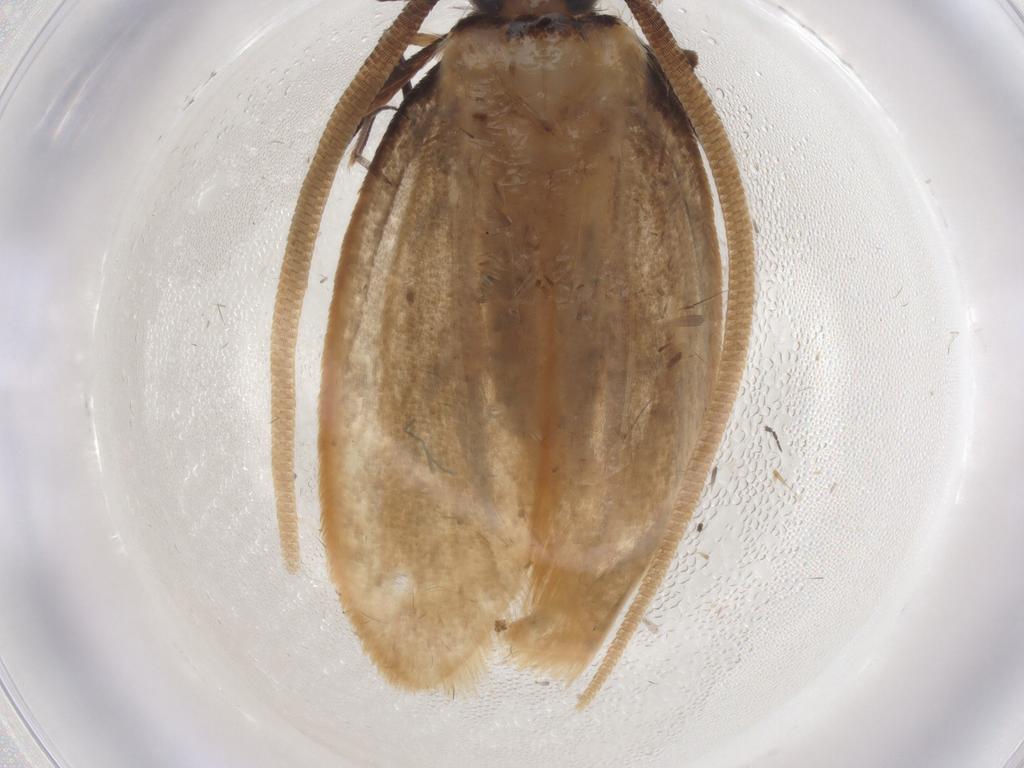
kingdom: Animalia
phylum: Arthropoda
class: Insecta
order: Lepidoptera
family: Tineidae
